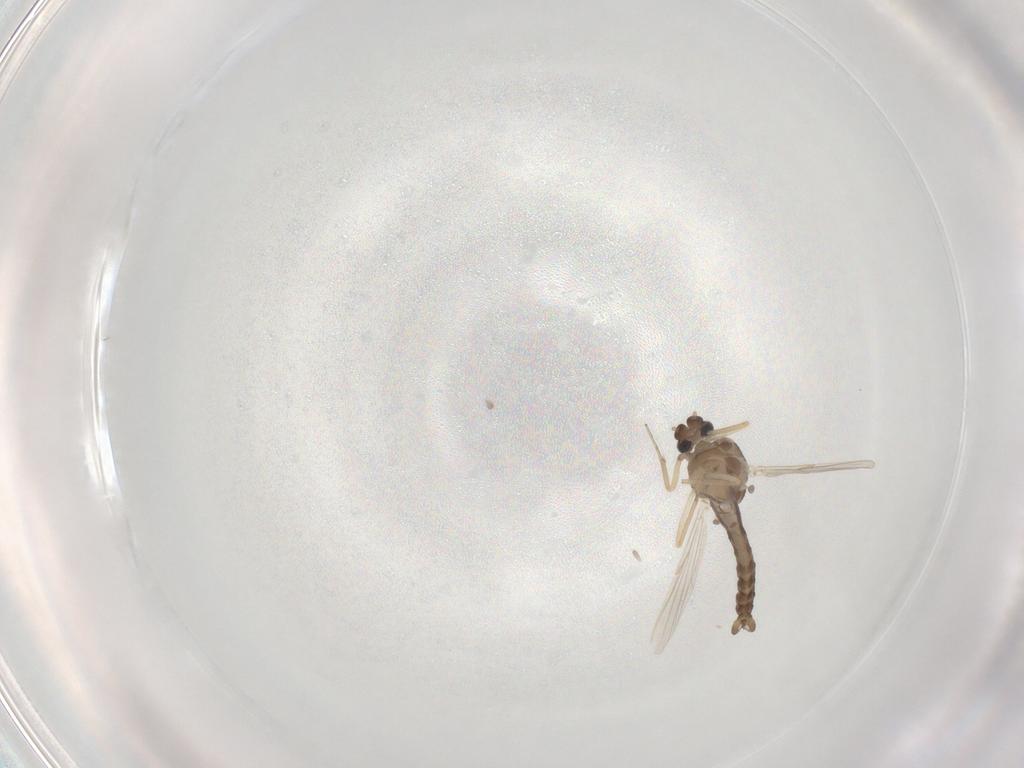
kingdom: Animalia
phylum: Arthropoda
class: Insecta
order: Diptera
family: Ceratopogonidae
